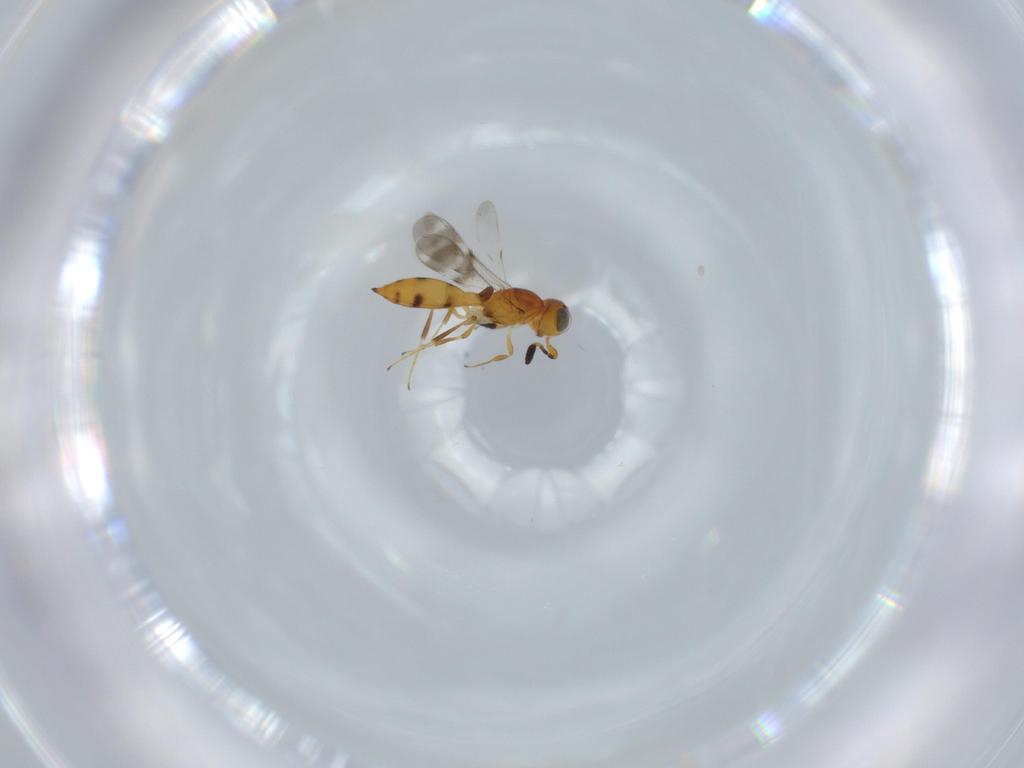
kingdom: Animalia
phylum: Arthropoda
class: Insecta
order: Hymenoptera
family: Scelionidae
